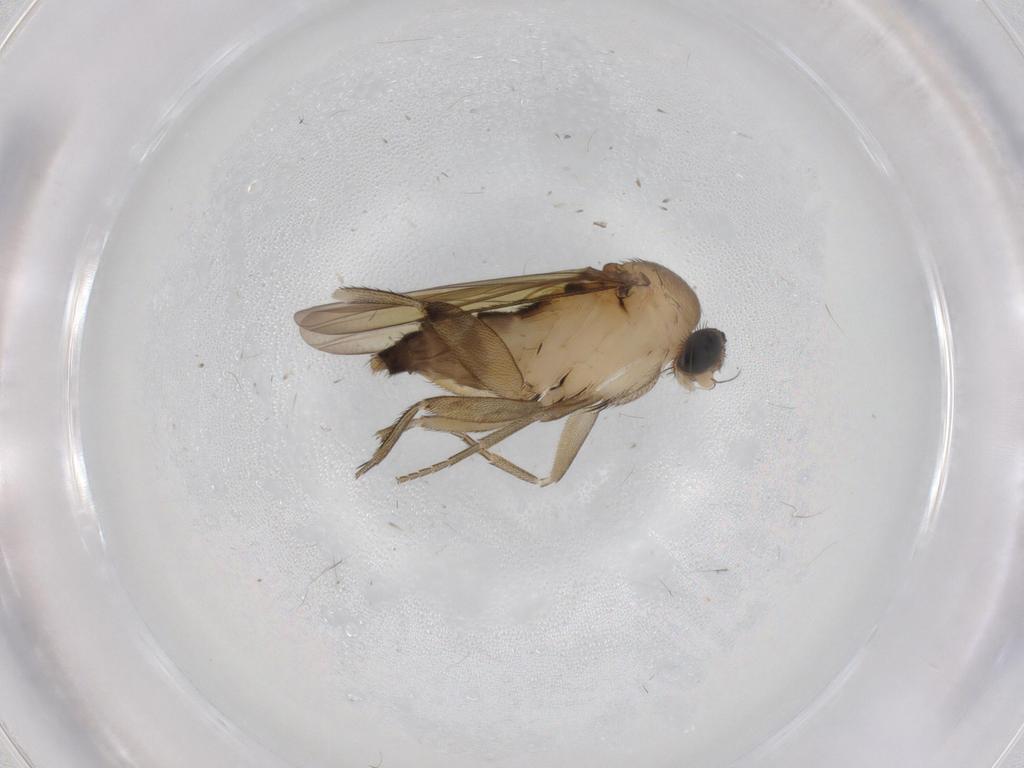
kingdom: Animalia
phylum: Arthropoda
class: Insecta
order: Diptera
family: Phoridae
